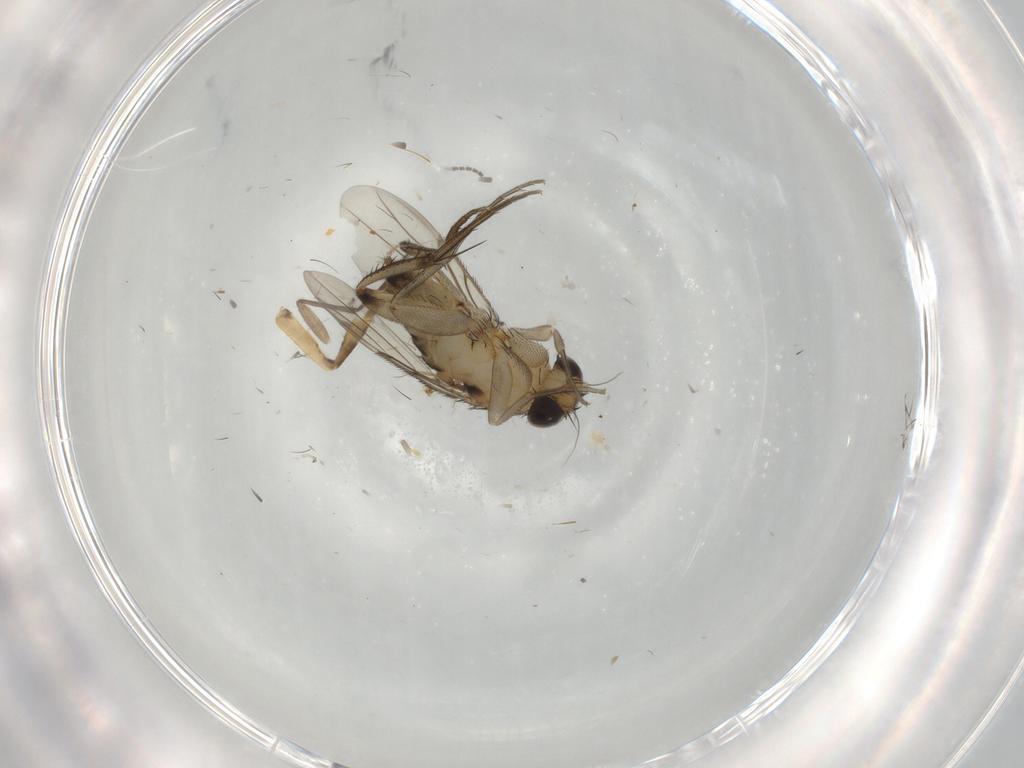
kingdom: Animalia
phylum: Arthropoda
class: Insecta
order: Diptera
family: Phoridae
